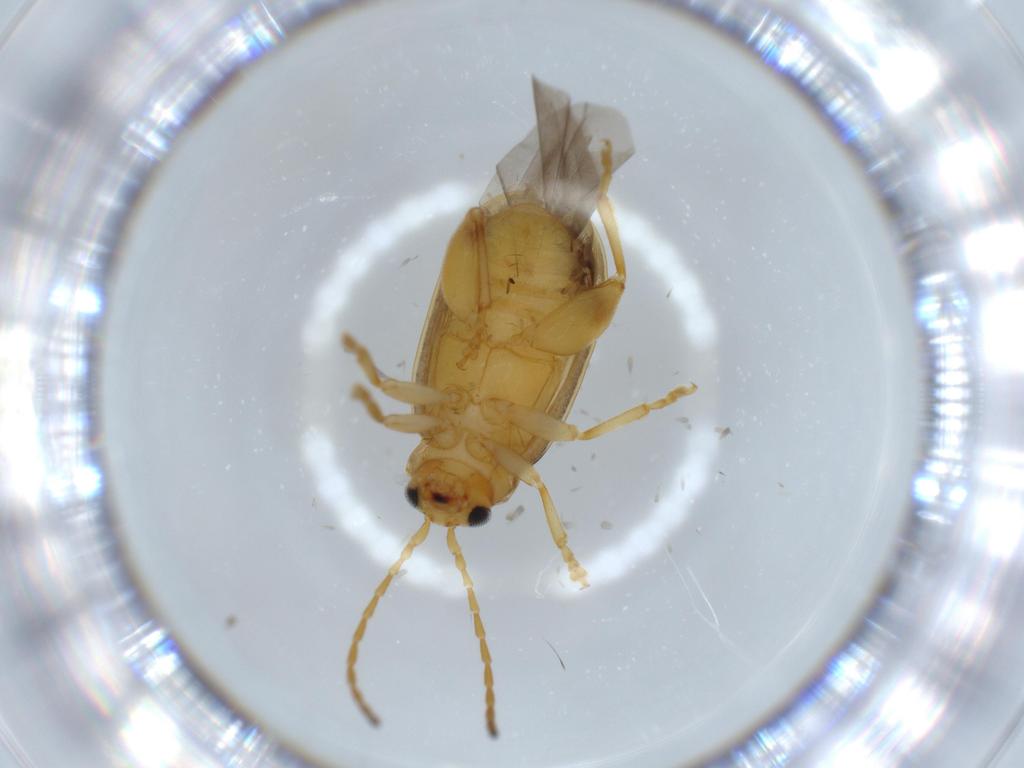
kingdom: Animalia
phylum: Arthropoda
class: Insecta
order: Coleoptera
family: Chrysomelidae
